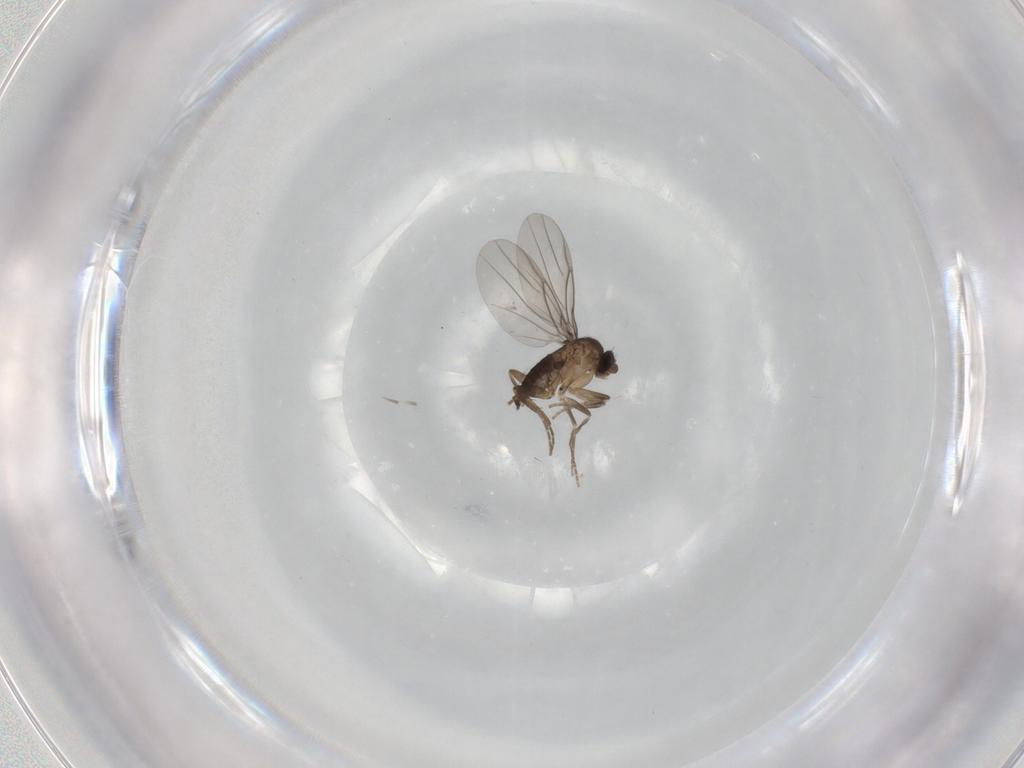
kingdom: Animalia
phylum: Arthropoda
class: Insecta
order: Diptera
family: Phoridae
